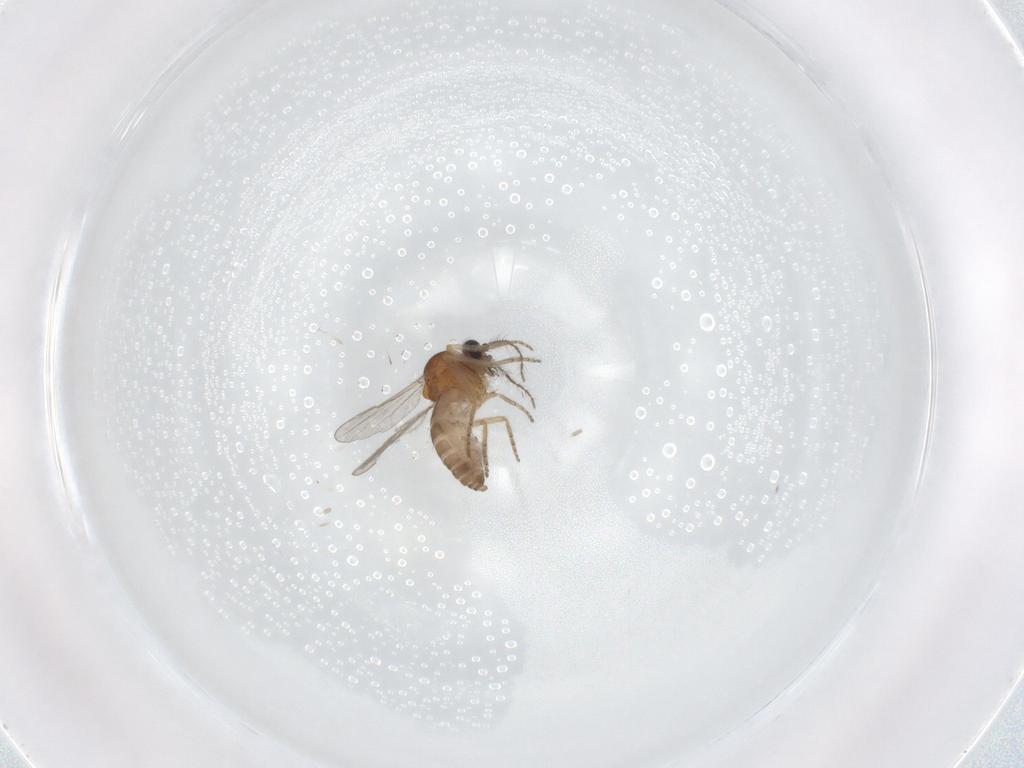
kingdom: Animalia
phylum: Arthropoda
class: Insecta
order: Diptera
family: Ceratopogonidae
